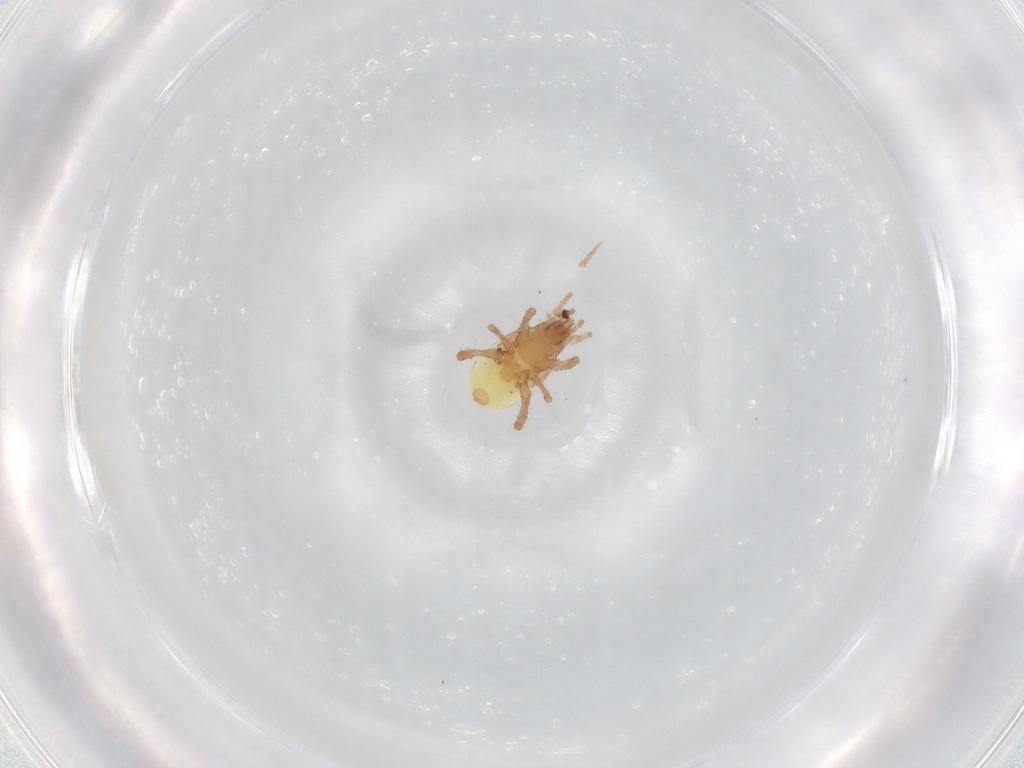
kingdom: Animalia
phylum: Arthropoda
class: Arachnida
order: Mesostigmata
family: Arctacaridae
